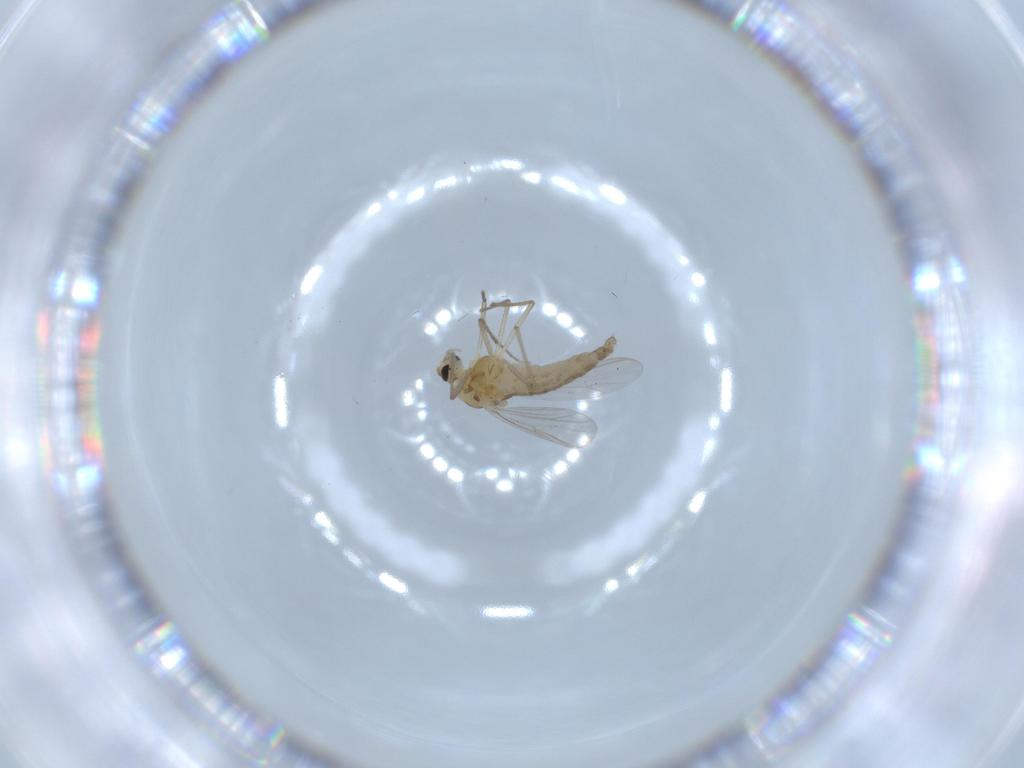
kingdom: Animalia
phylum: Arthropoda
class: Insecta
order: Diptera
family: Chironomidae
